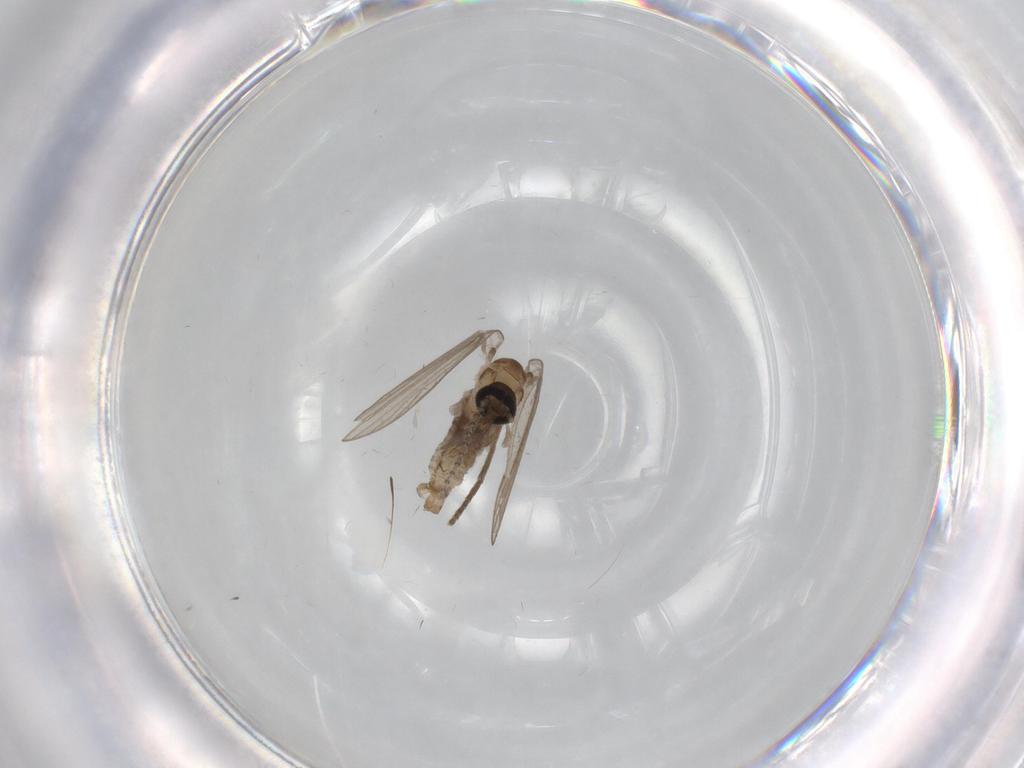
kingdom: Animalia
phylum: Arthropoda
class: Insecta
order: Diptera
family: Psychodidae
